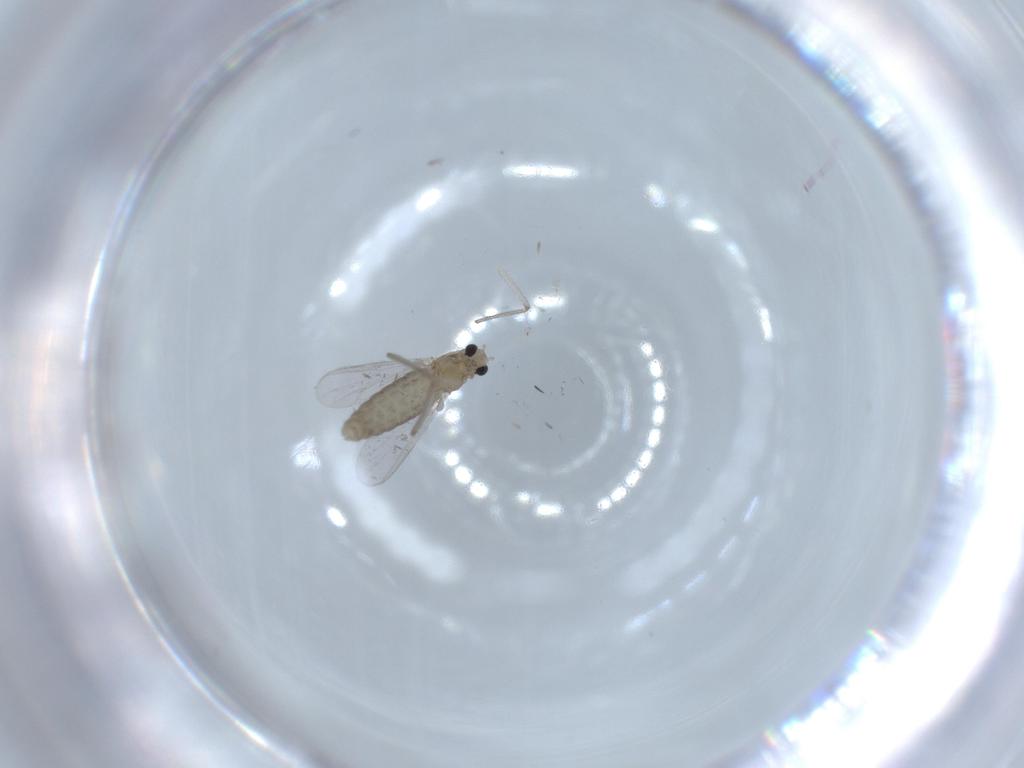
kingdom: Animalia
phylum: Arthropoda
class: Insecta
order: Diptera
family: Chironomidae
